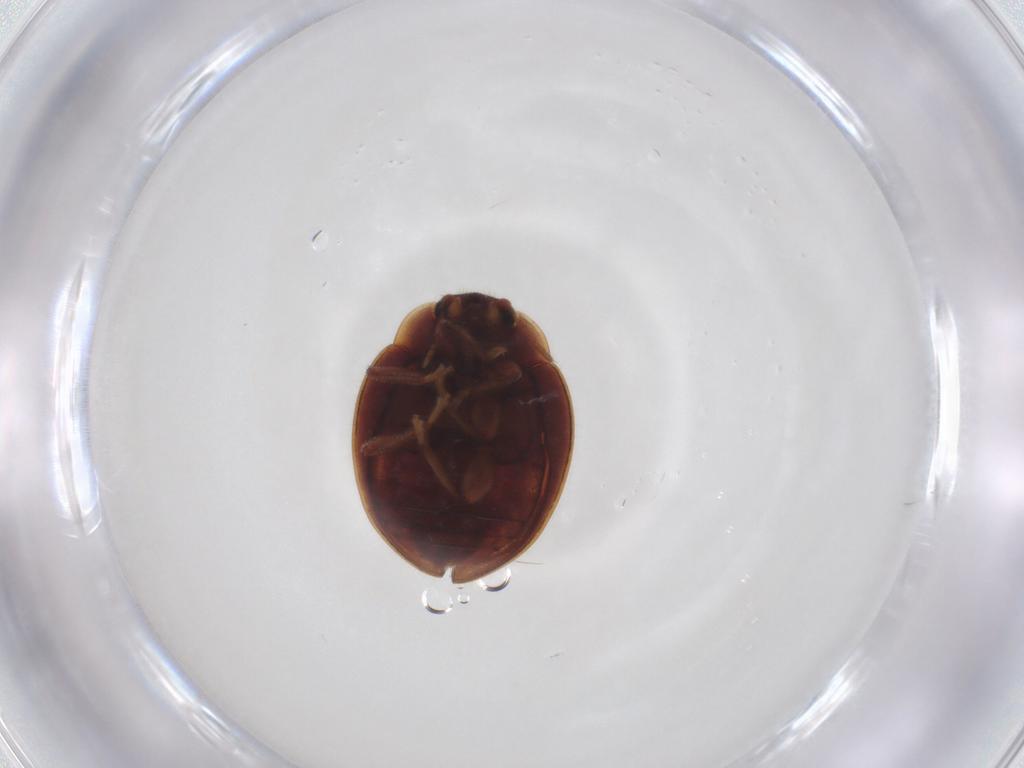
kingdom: Animalia
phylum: Arthropoda
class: Insecta
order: Coleoptera
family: Coccinellidae
